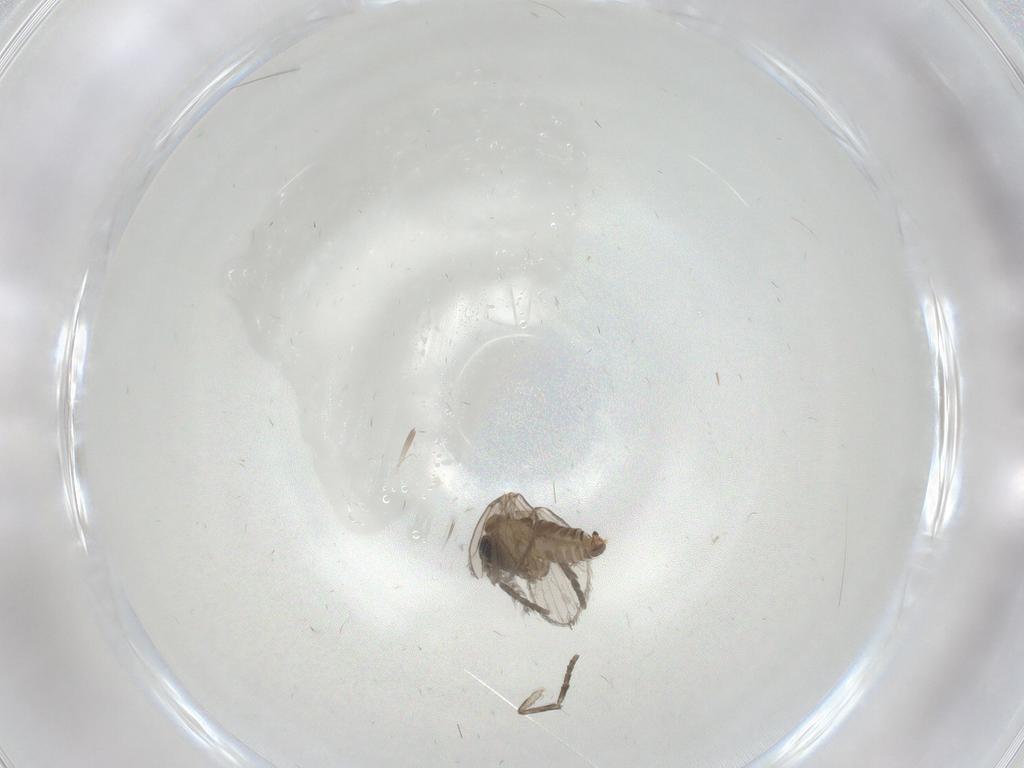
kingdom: Animalia
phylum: Arthropoda
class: Insecta
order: Diptera
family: Psychodidae
